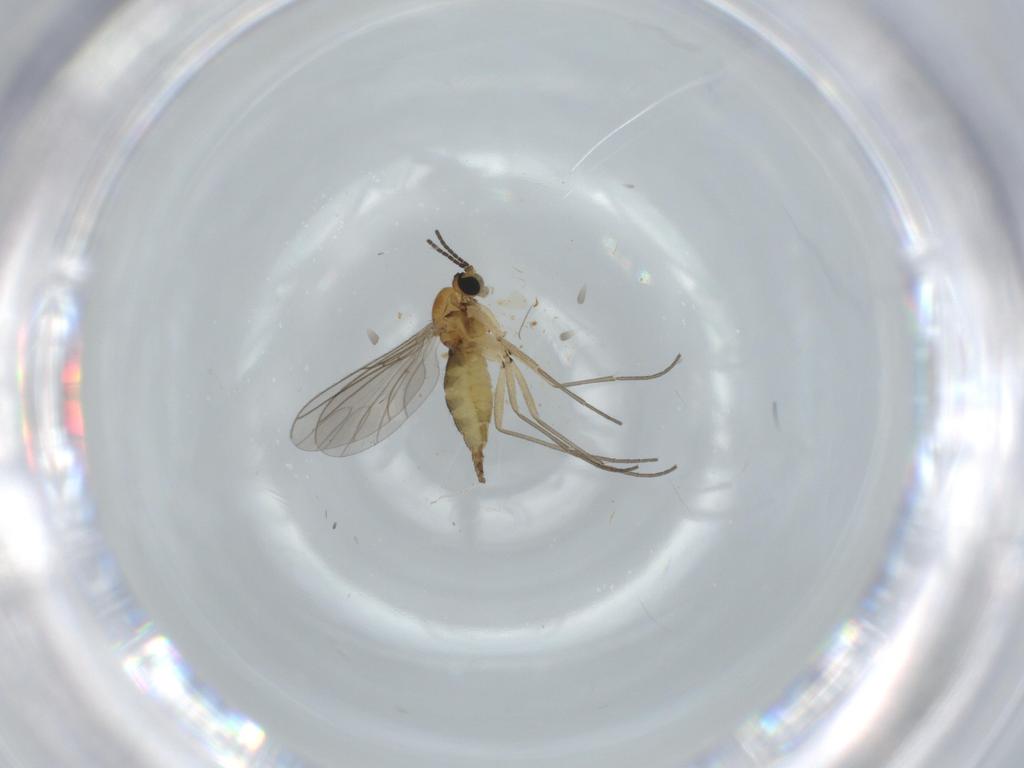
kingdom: Animalia
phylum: Arthropoda
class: Insecta
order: Diptera
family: Sciaridae
